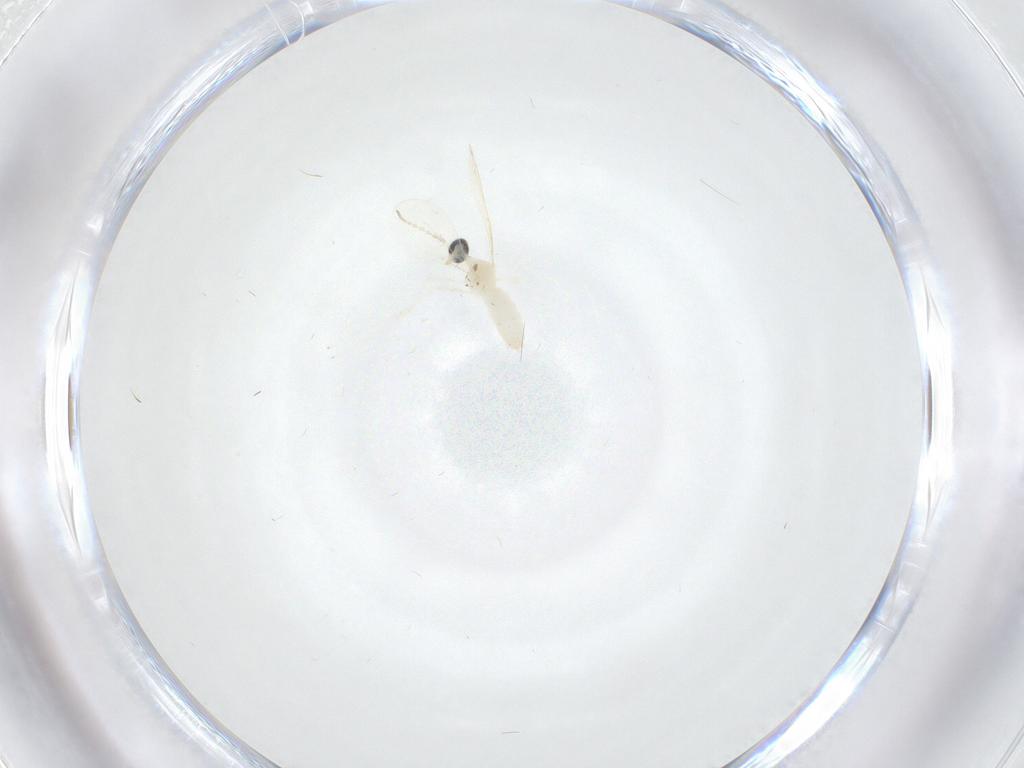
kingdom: Animalia
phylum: Arthropoda
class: Insecta
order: Diptera
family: Cecidomyiidae
